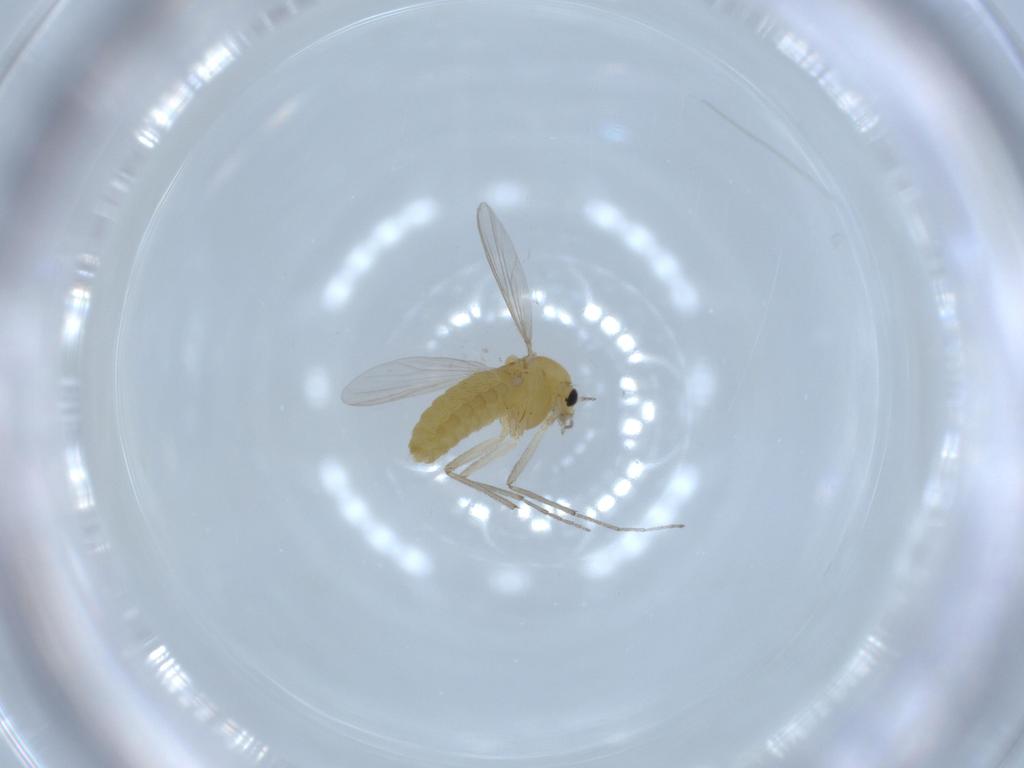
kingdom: Animalia
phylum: Arthropoda
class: Insecta
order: Diptera
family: Chironomidae
